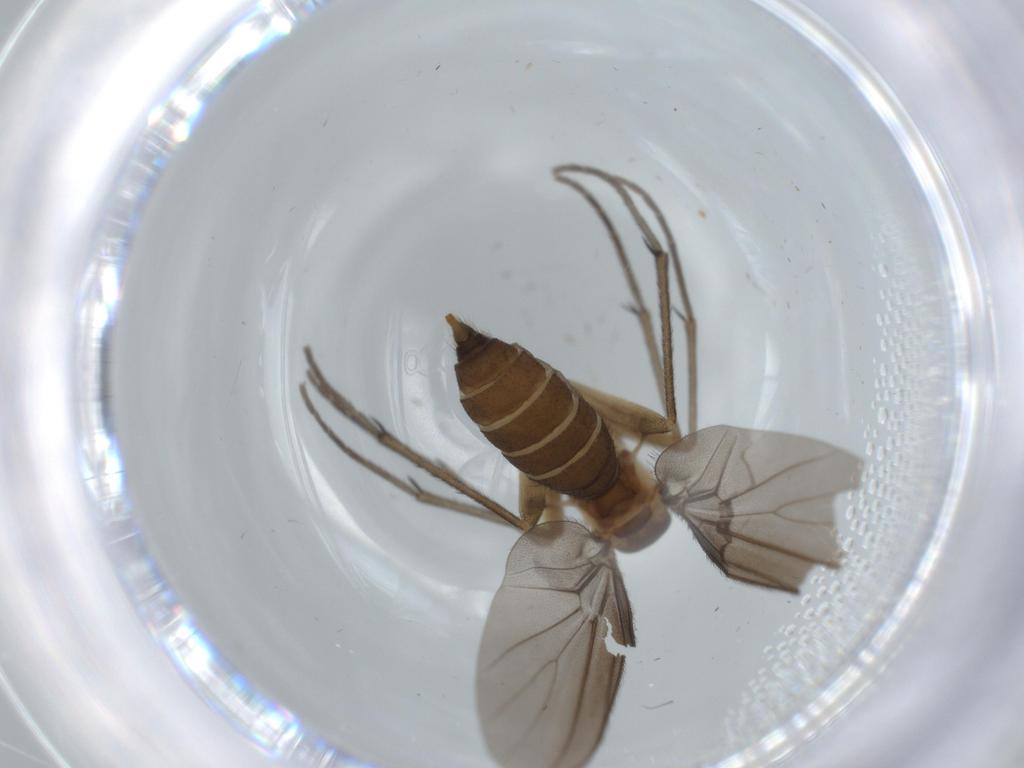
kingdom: Animalia
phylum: Arthropoda
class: Insecta
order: Diptera
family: Diadocidiidae
